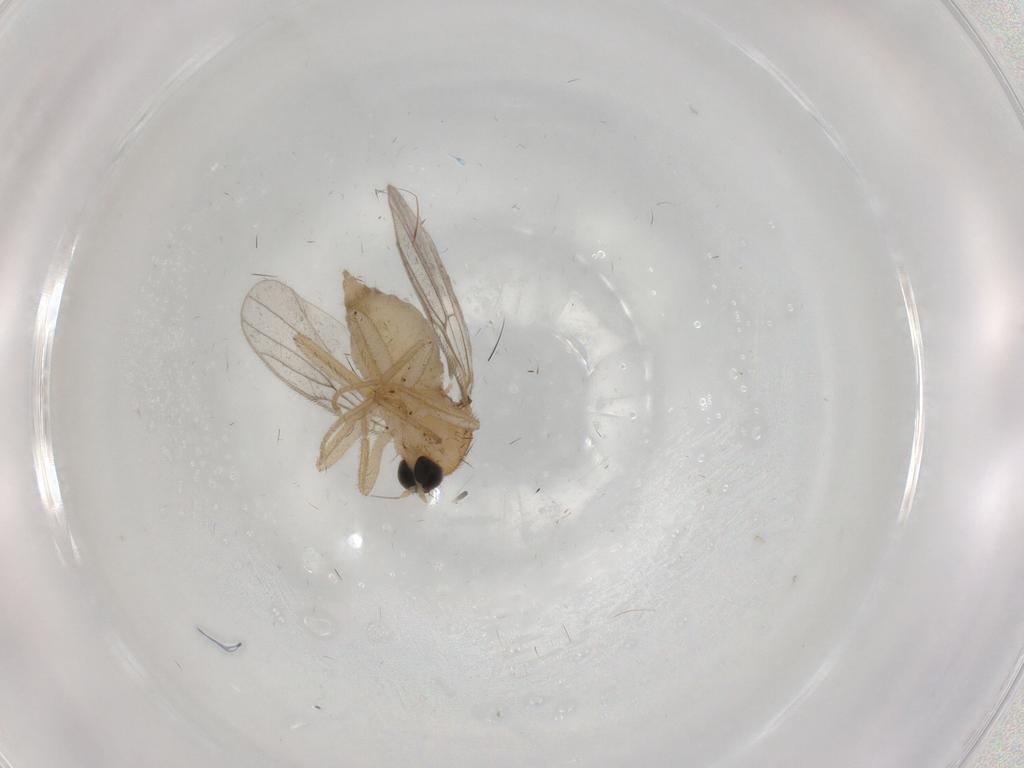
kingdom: Animalia
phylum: Arthropoda
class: Insecta
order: Diptera
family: Hybotidae
